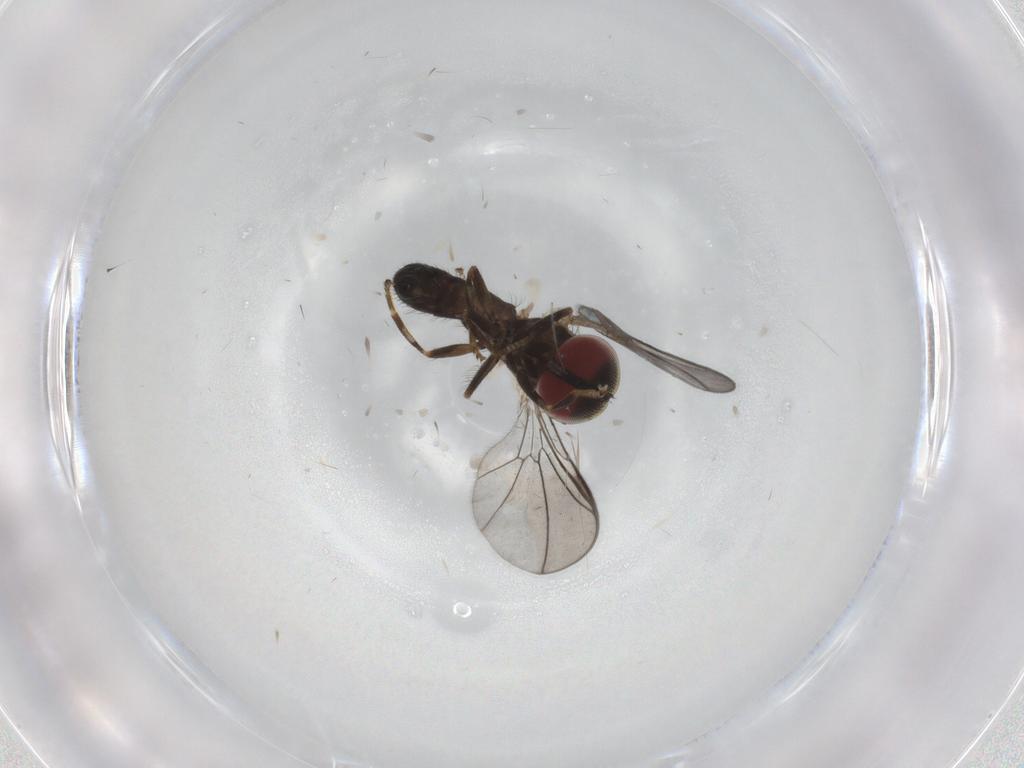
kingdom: Animalia
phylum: Arthropoda
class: Insecta
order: Diptera
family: Pipunculidae
